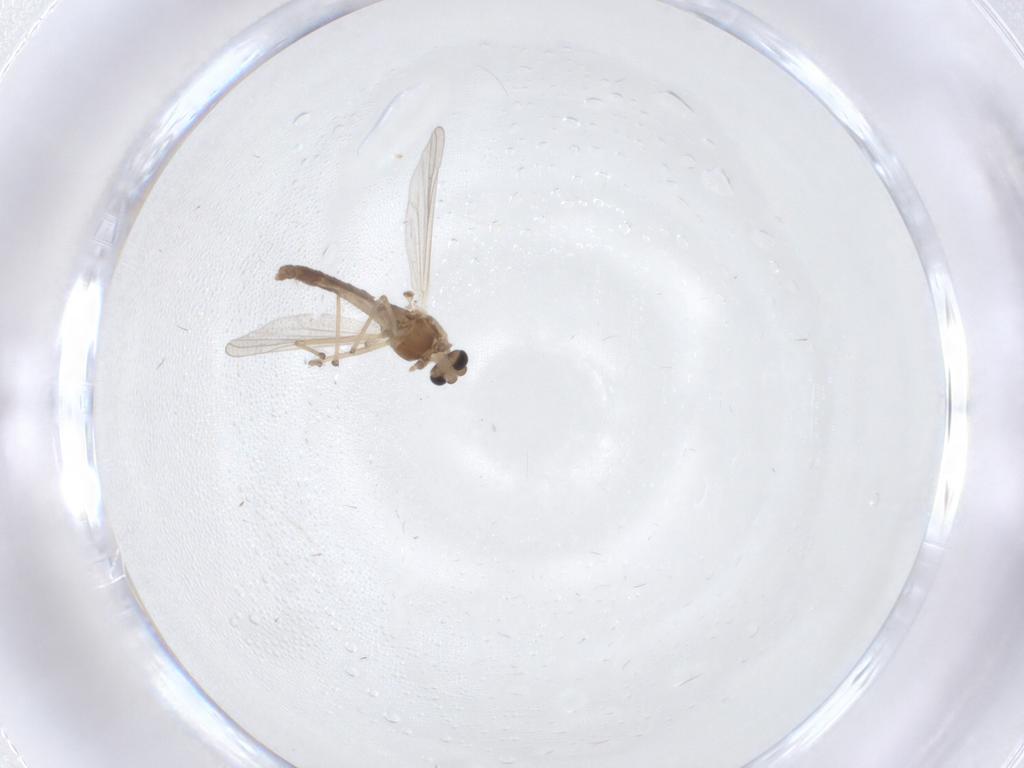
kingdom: Animalia
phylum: Arthropoda
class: Insecta
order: Diptera
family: Chironomidae
